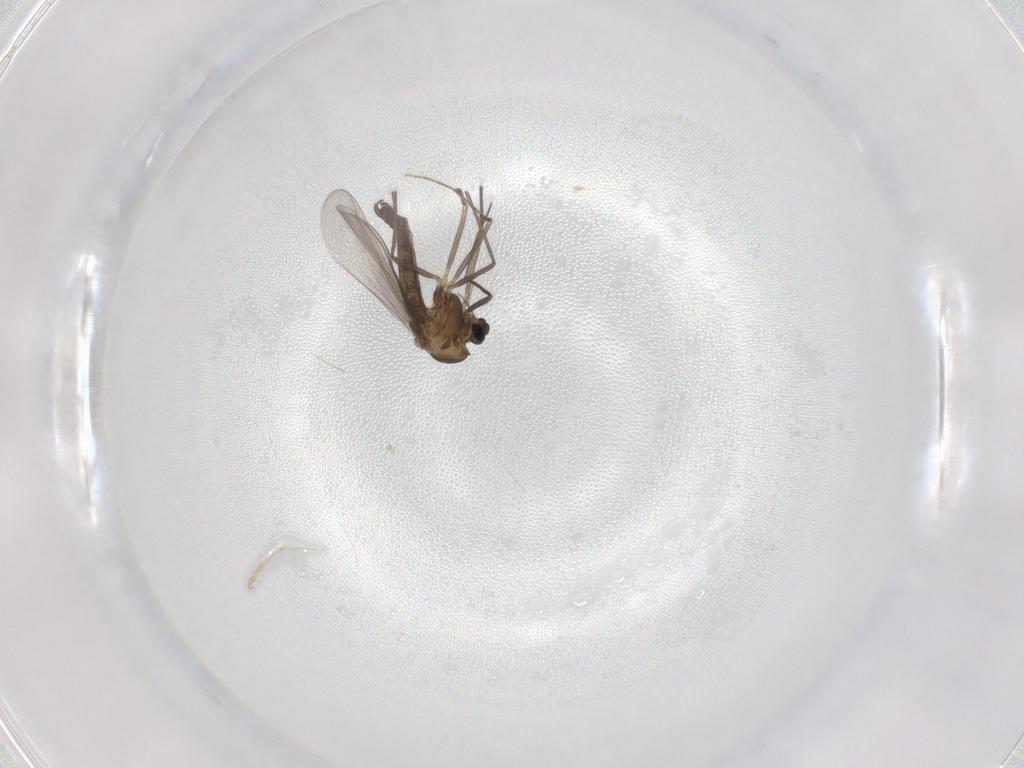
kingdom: Animalia
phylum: Arthropoda
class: Insecta
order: Diptera
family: Chironomidae
